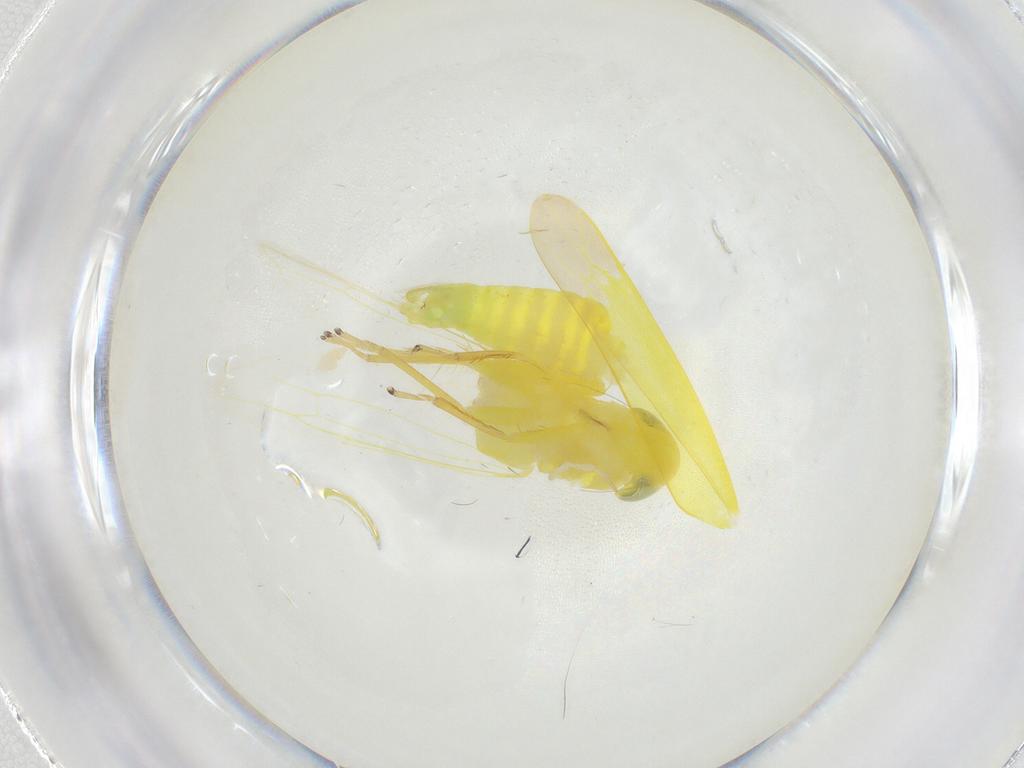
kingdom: Animalia
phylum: Arthropoda
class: Insecta
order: Hemiptera
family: Cicadellidae
